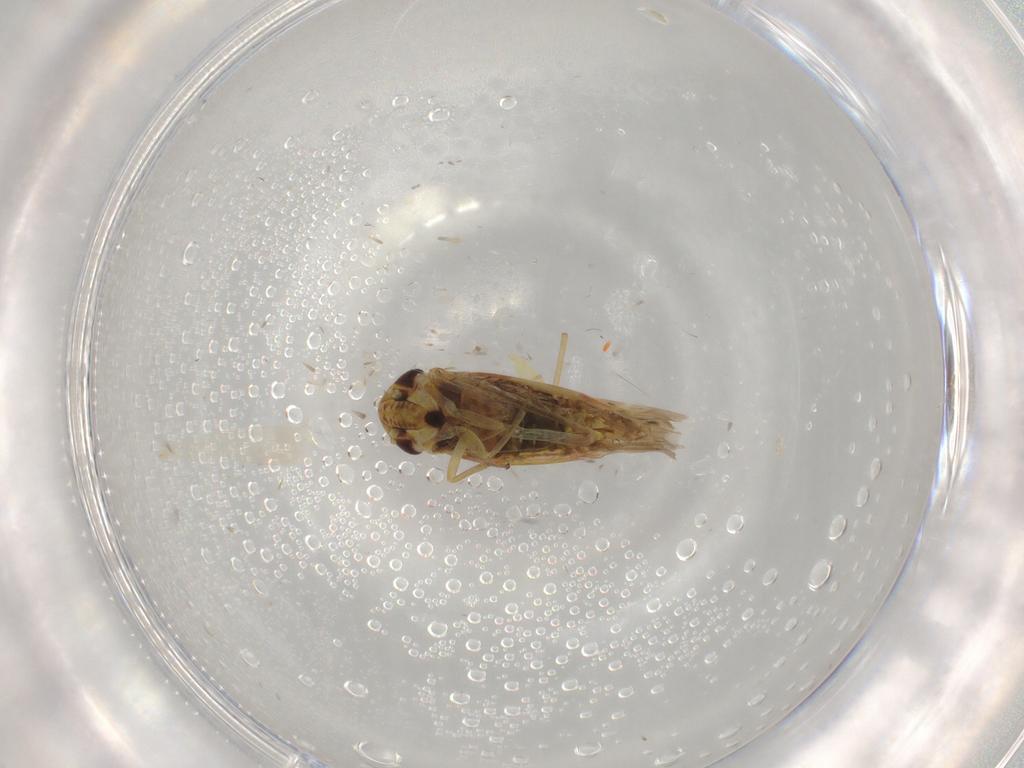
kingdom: Animalia
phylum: Arthropoda
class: Insecta
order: Hemiptera
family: Cicadellidae
